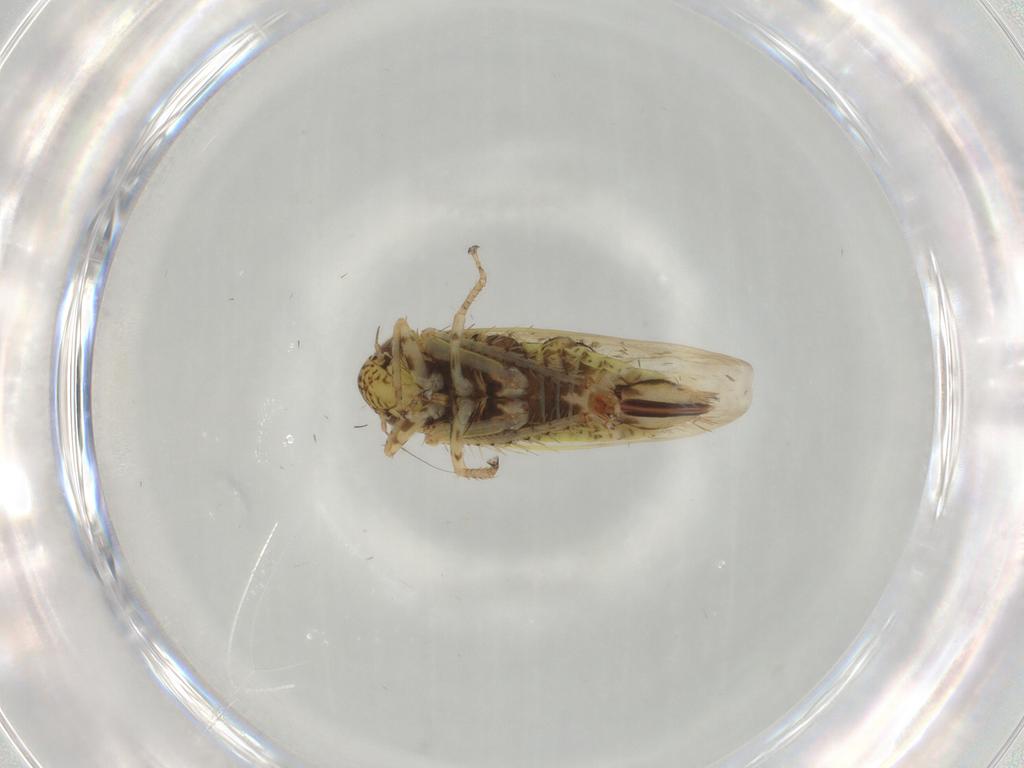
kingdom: Animalia
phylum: Arthropoda
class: Insecta
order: Hemiptera
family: Cicadellidae
